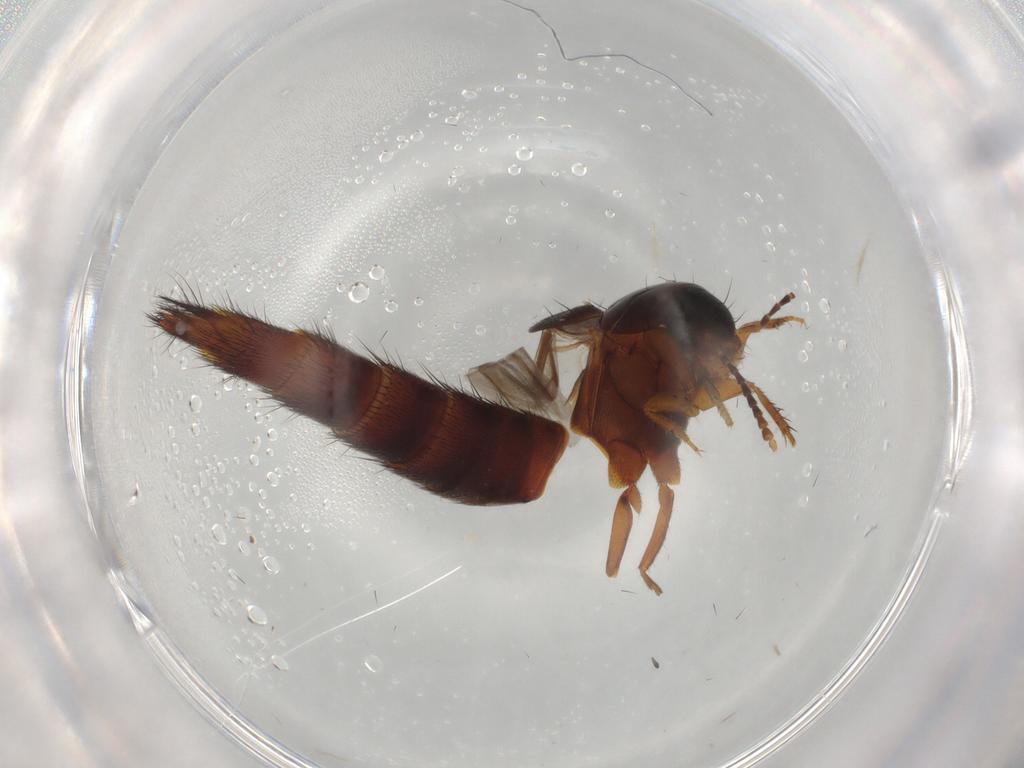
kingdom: Animalia
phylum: Arthropoda
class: Insecta
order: Coleoptera
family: Staphylinidae
